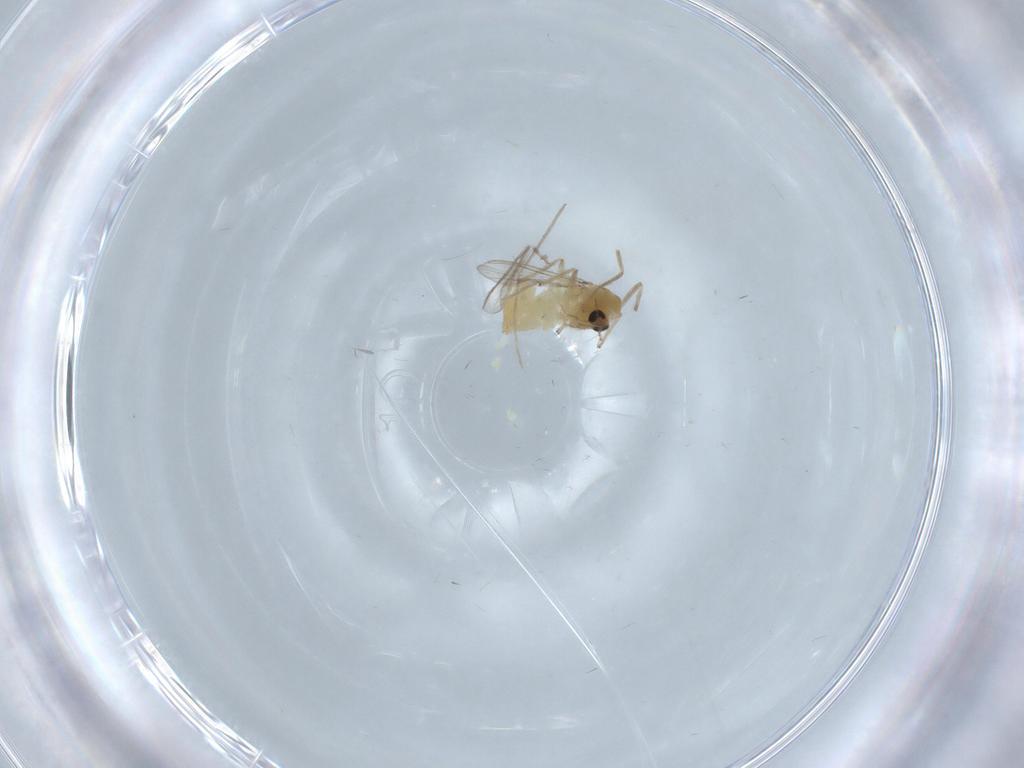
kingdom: Animalia
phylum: Arthropoda
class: Insecta
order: Diptera
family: Chironomidae
